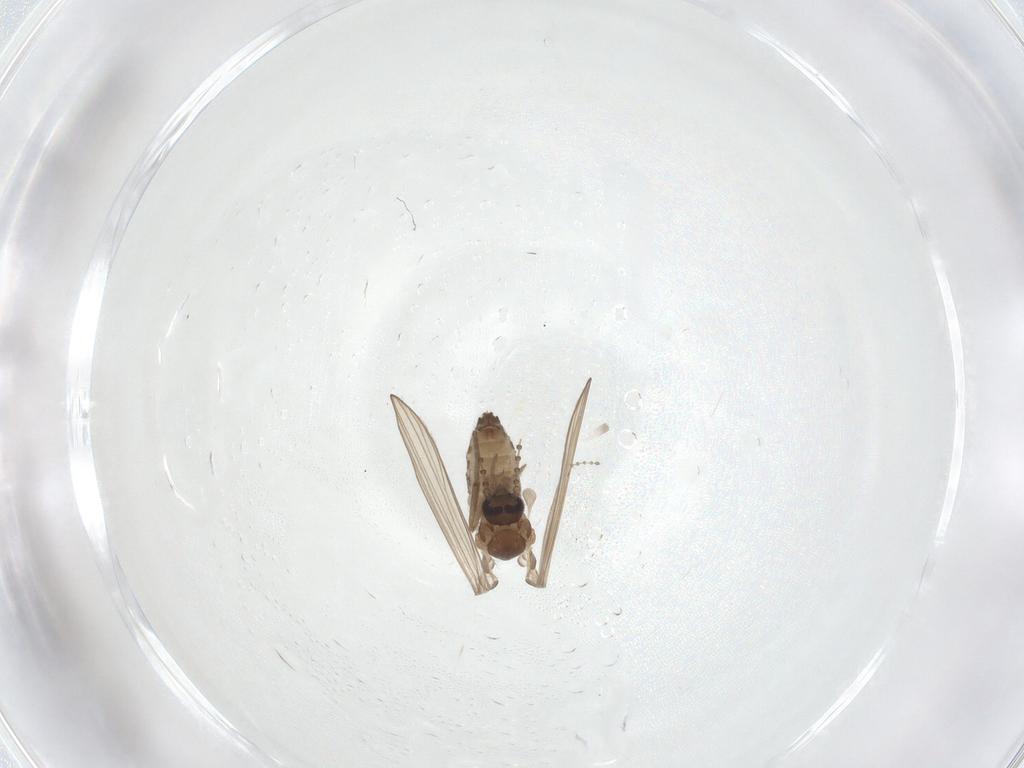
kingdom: Animalia
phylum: Arthropoda
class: Insecta
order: Diptera
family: Psychodidae
